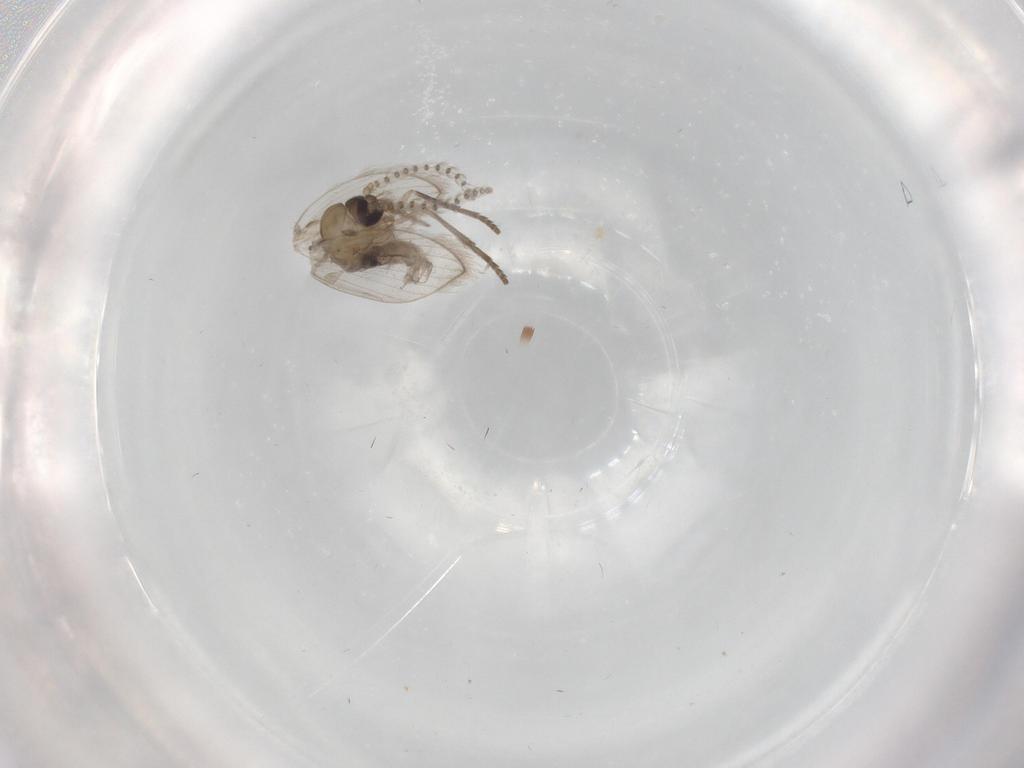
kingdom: Animalia
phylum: Arthropoda
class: Insecta
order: Diptera
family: Psychodidae
